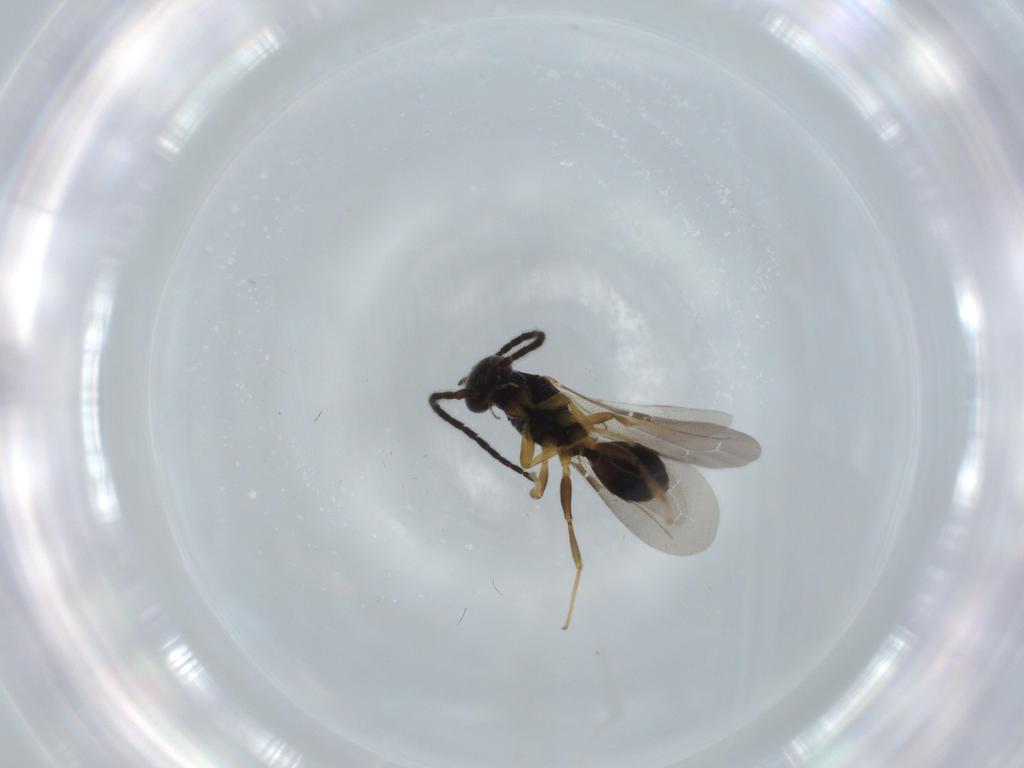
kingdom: Animalia
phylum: Arthropoda
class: Insecta
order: Hymenoptera
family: Bethylidae
